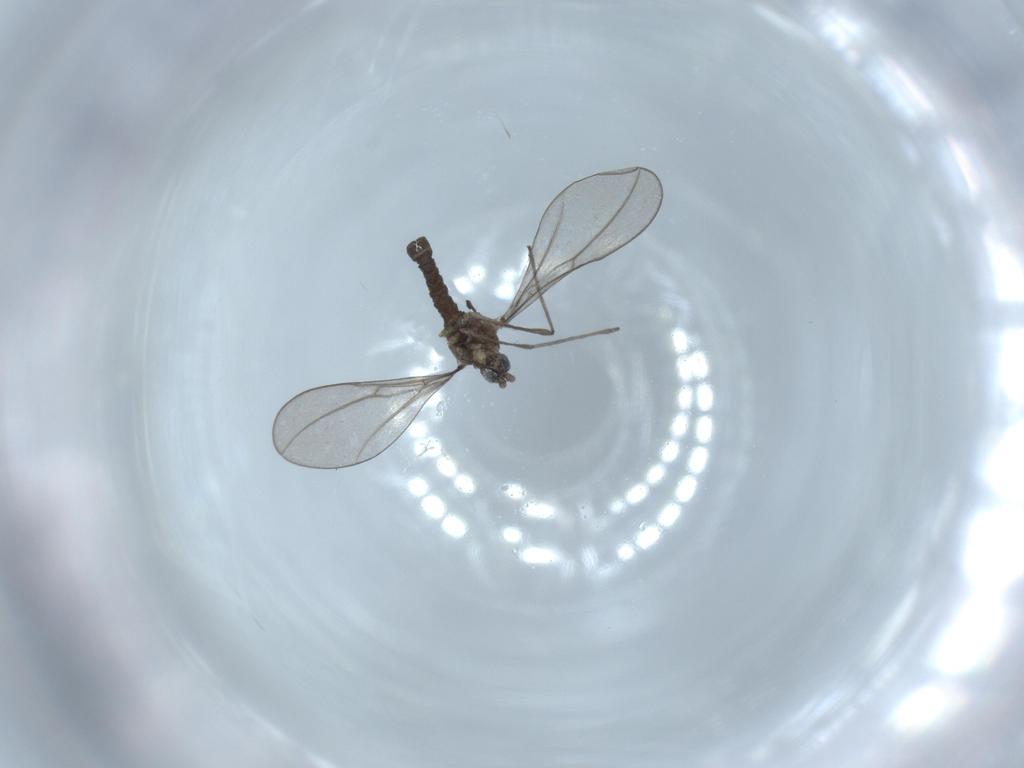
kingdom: Animalia
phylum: Arthropoda
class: Insecta
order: Diptera
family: Cecidomyiidae
